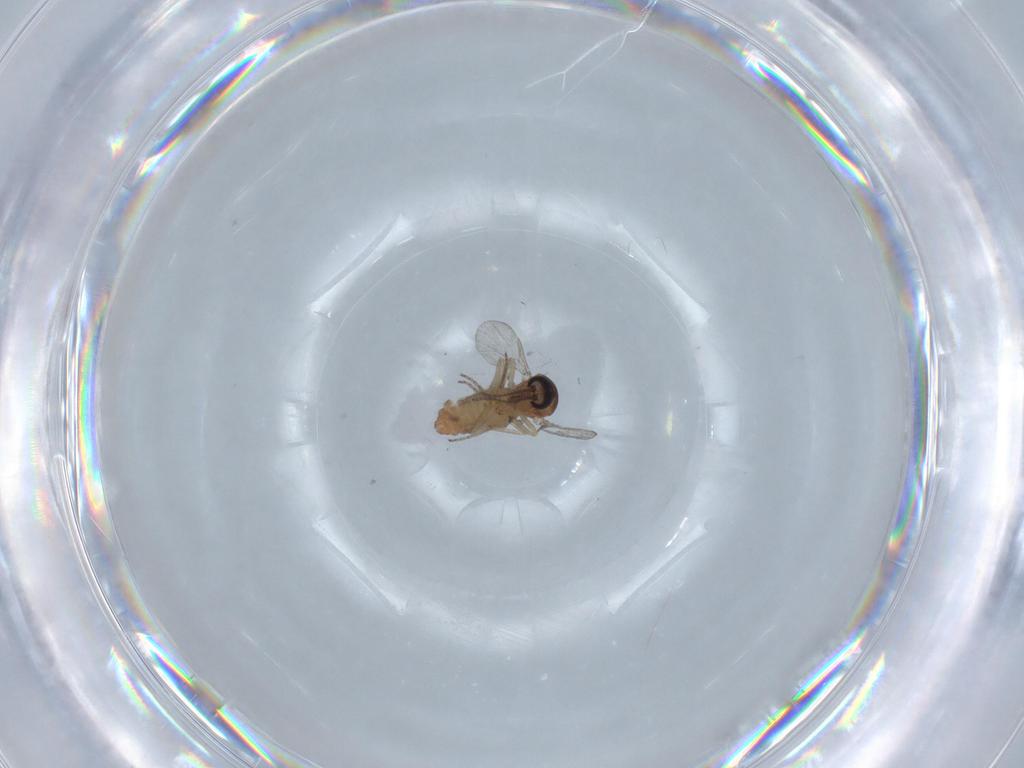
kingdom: Animalia
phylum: Arthropoda
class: Insecta
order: Diptera
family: Ceratopogonidae
